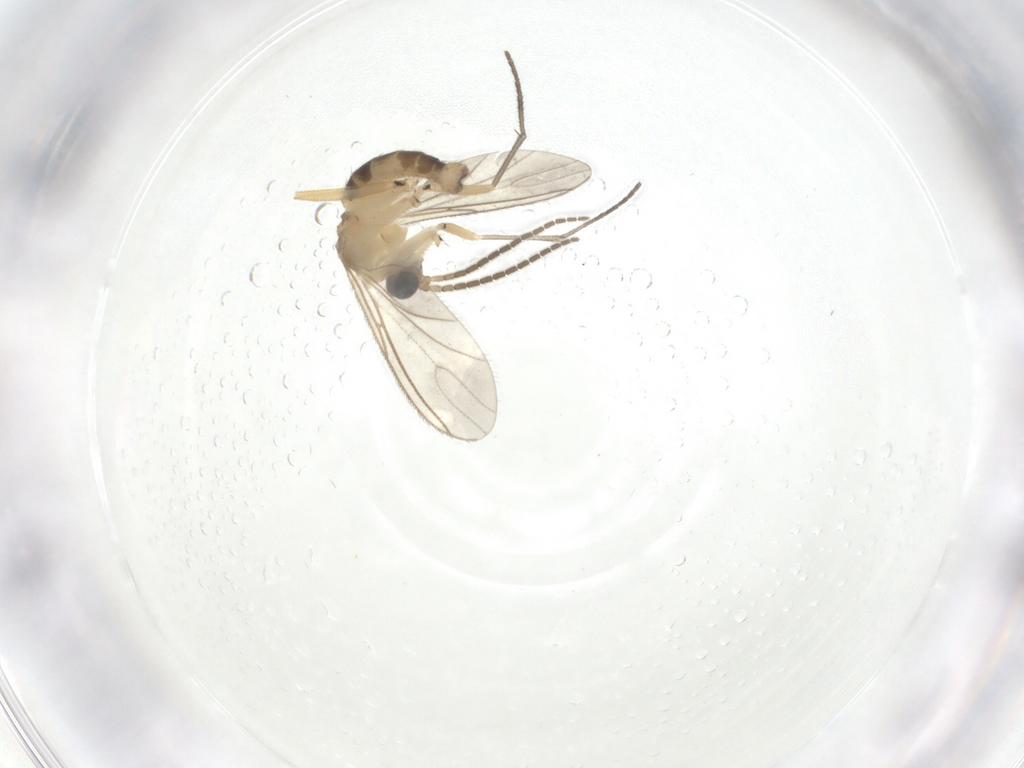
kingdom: Animalia
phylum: Arthropoda
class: Insecta
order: Diptera
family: Sciaridae
